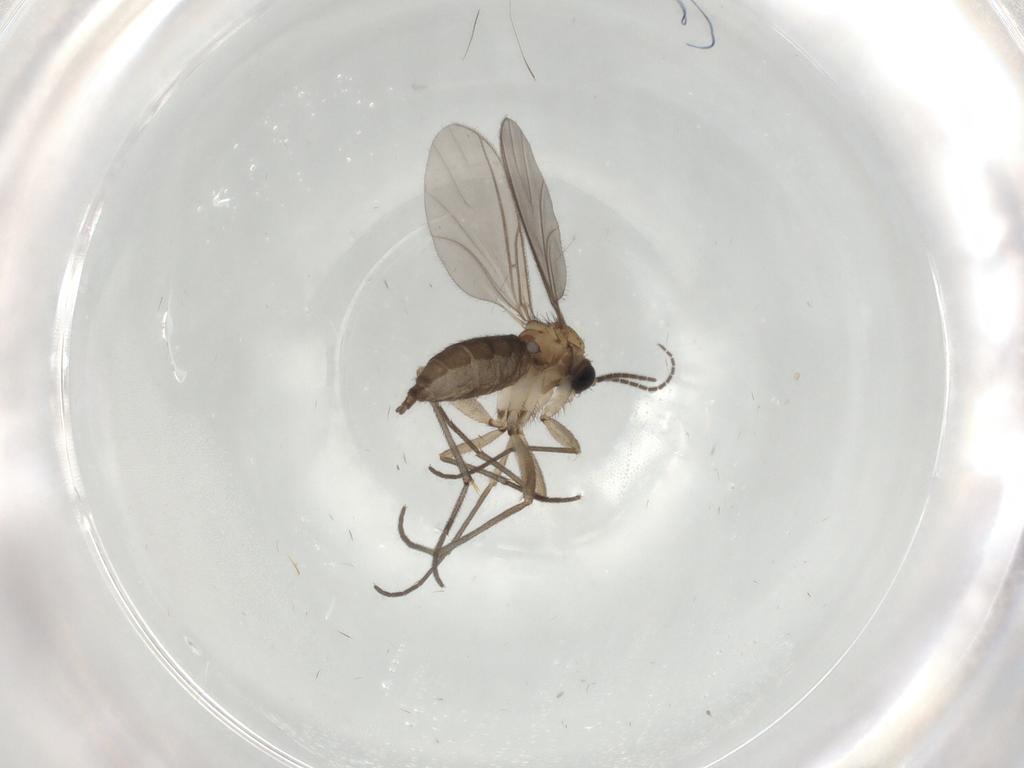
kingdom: Animalia
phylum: Arthropoda
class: Insecta
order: Diptera
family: Sciaridae
